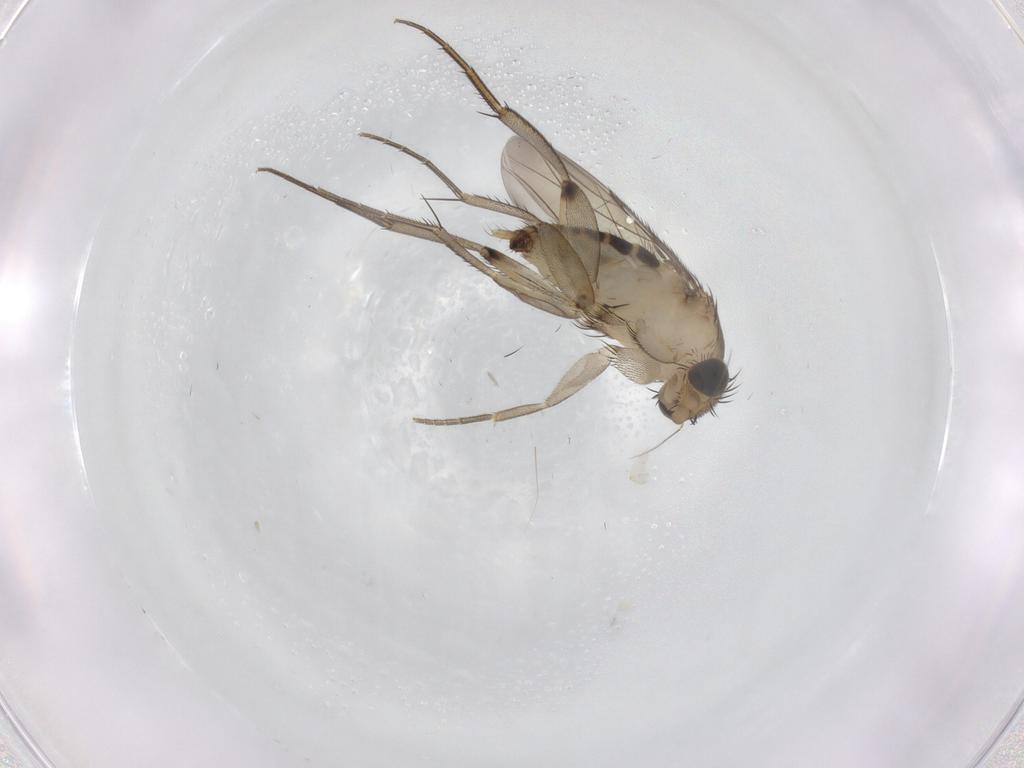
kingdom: Animalia
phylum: Arthropoda
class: Insecta
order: Diptera
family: Phoridae
